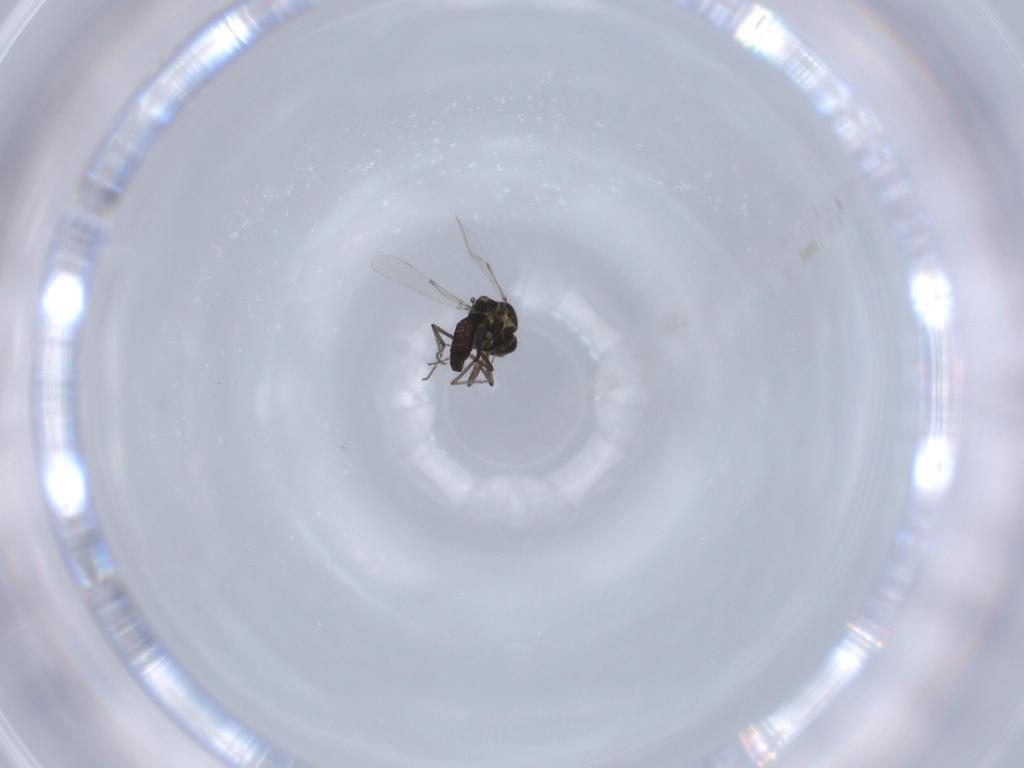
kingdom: Animalia
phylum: Arthropoda
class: Insecta
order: Diptera
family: Ceratopogonidae
